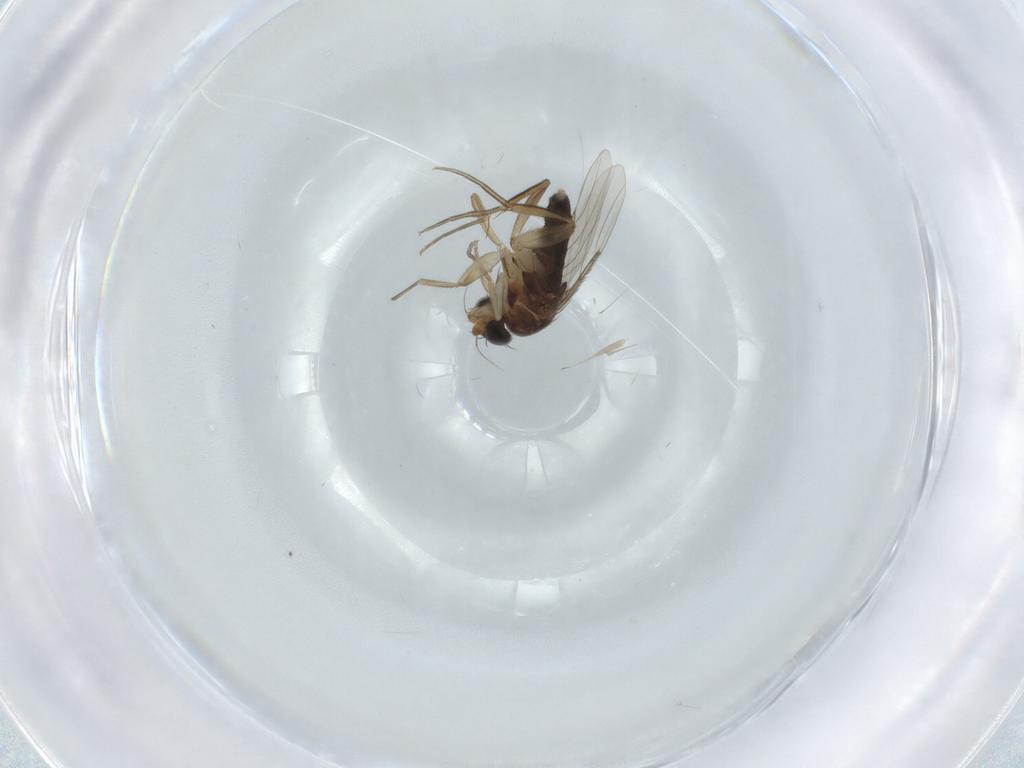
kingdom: Animalia
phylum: Arthropoda
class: Insecta
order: Diptera
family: Phoridae
